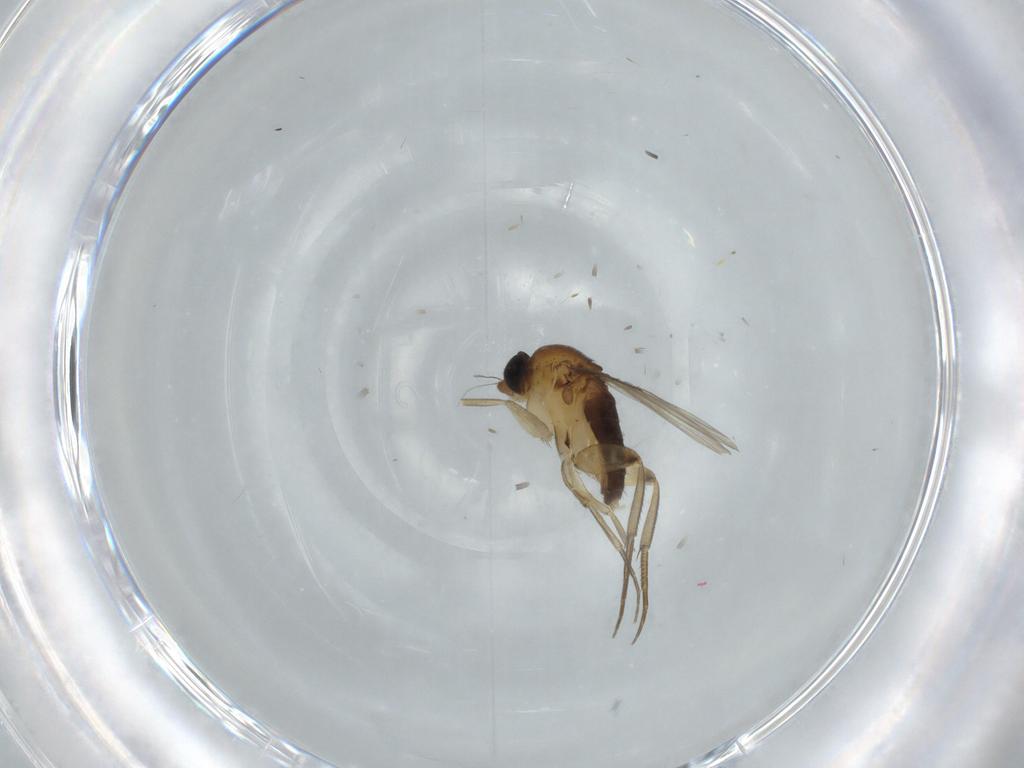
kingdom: Animalia
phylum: Arthropoda
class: Insecta
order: Diptera
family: Phoridae
